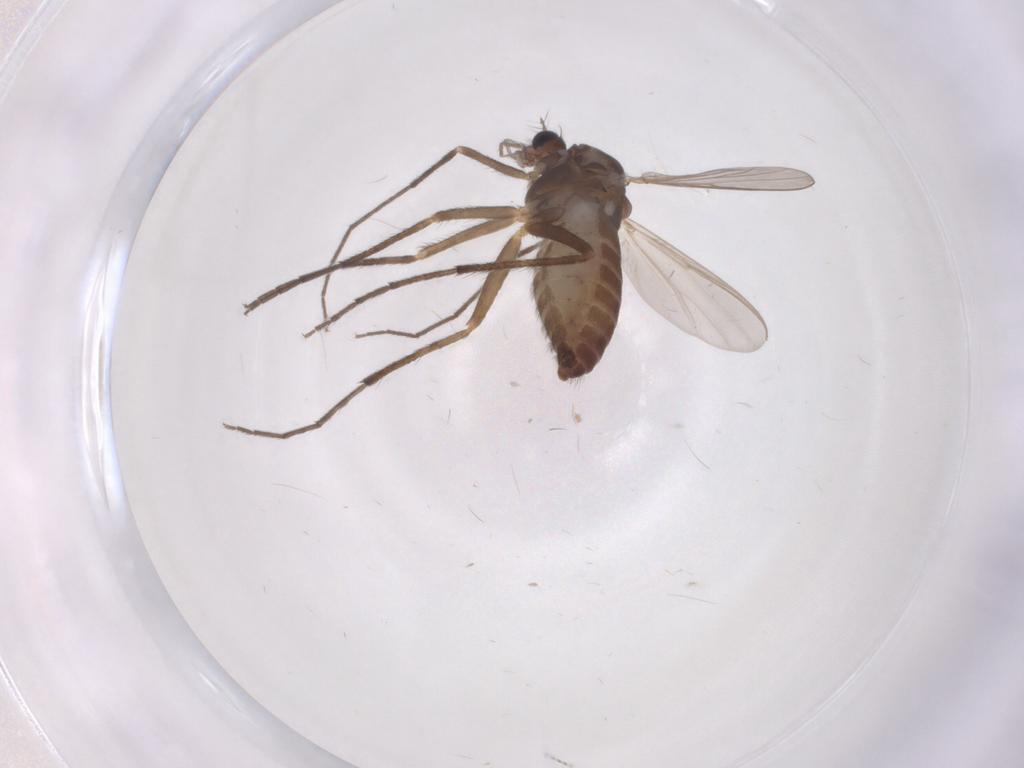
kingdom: Animalia
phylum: Arthropoda
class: Insecta
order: Diptera
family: Chironomidae
